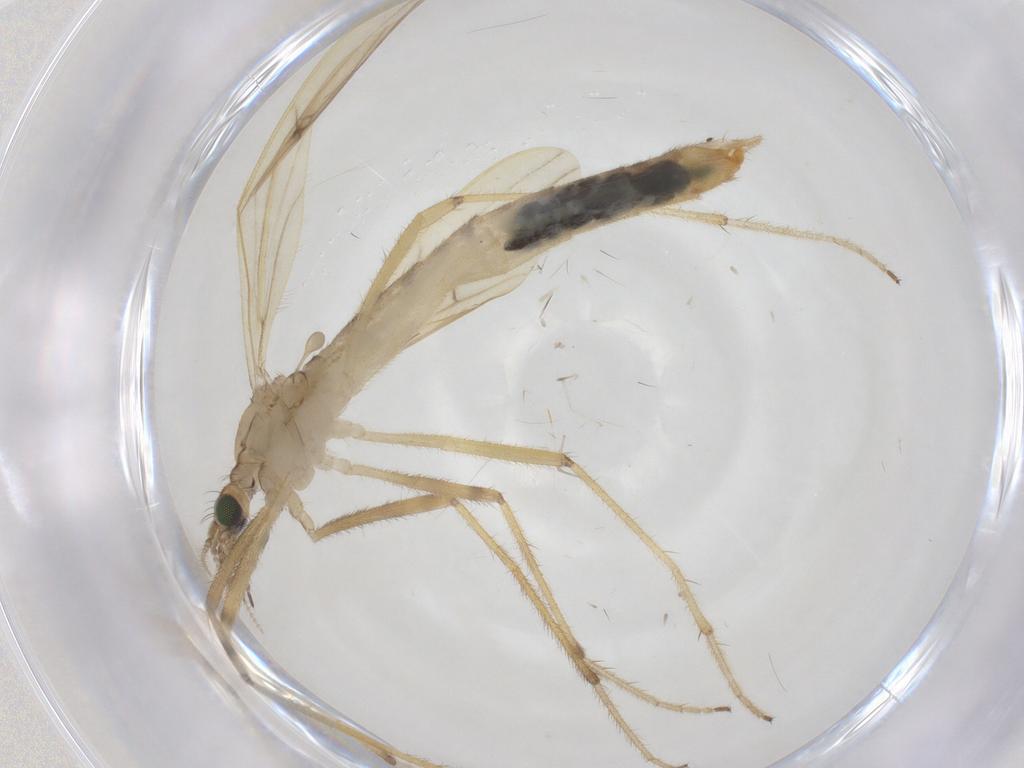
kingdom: Animalia
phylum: Arthropoda
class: Insecta
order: Diptera
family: Limoniidae
